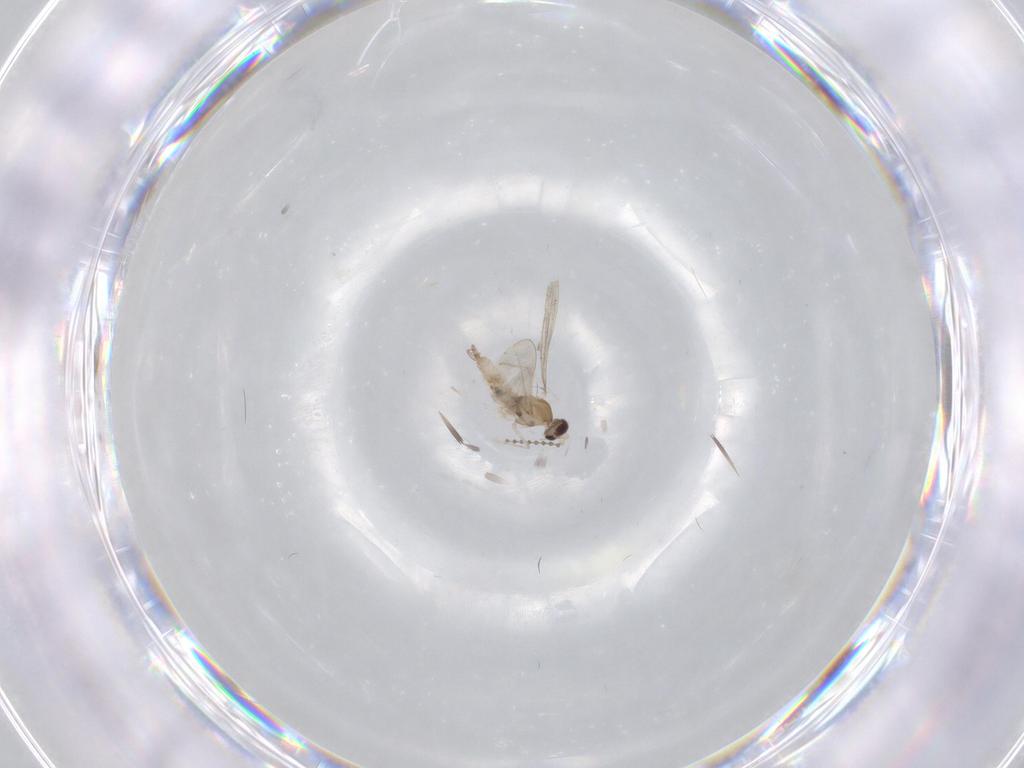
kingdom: Animalia
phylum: Arthropoda
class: Insecta
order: Diptera
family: Cecidomyiidae
